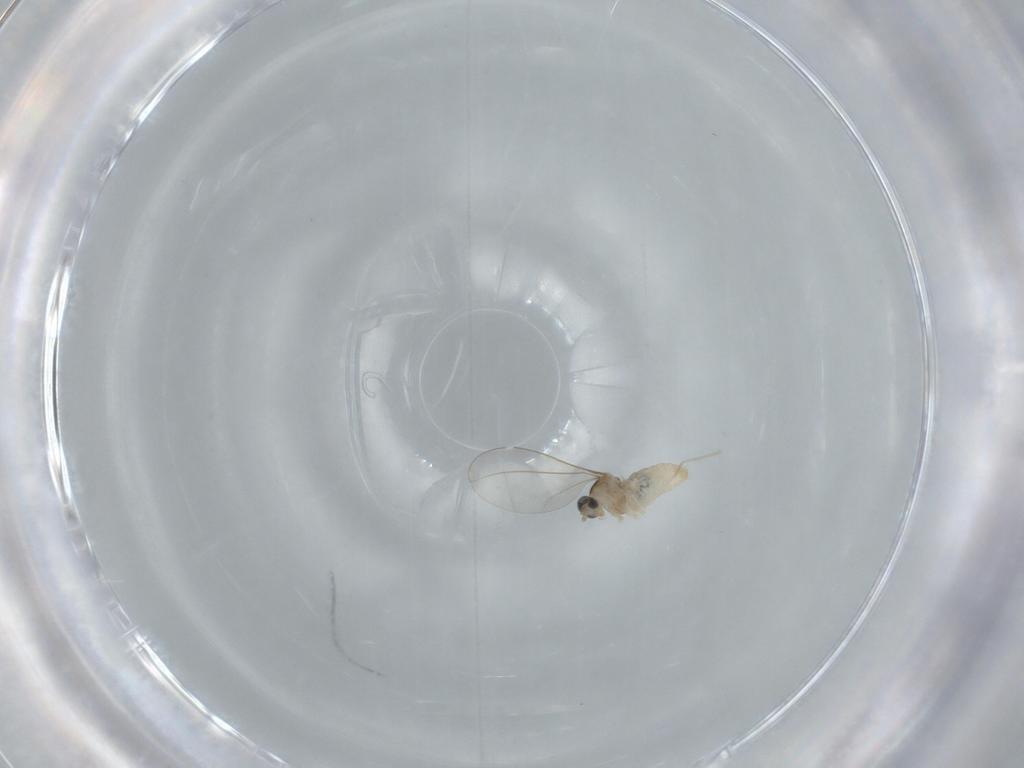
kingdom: Animalia
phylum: Arthropoda
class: Insecta
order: Diptera
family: Cecidomyiidae
